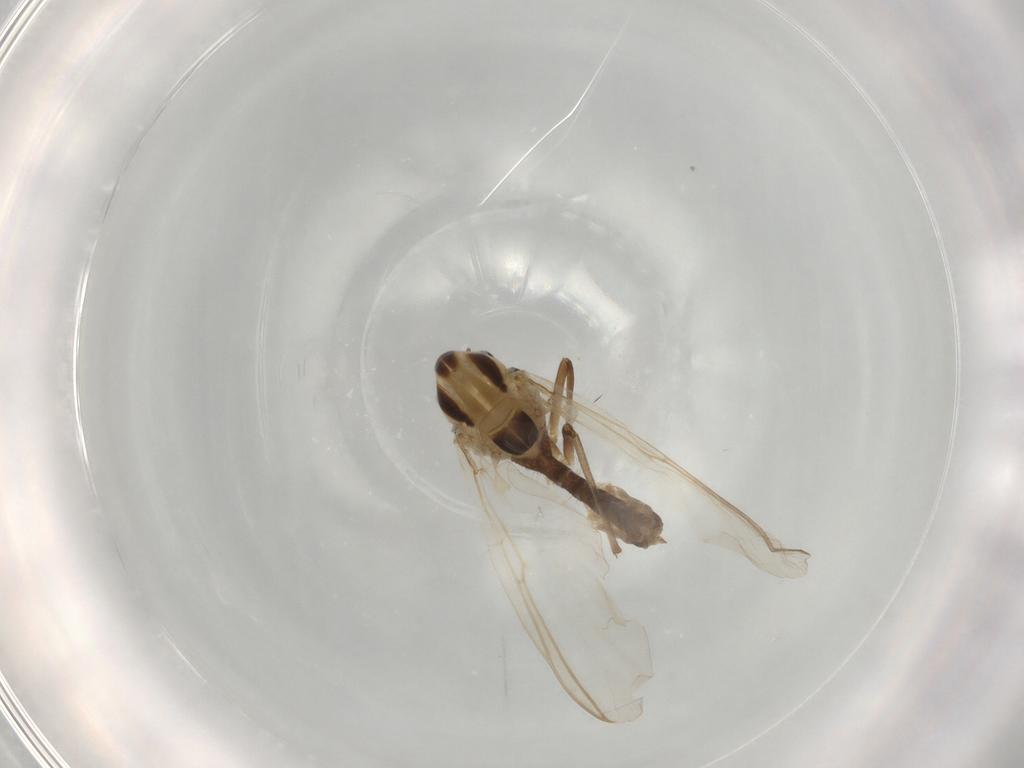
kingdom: Animalia
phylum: Arthropoda
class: Insecta
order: Diptera
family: Chironomidae
